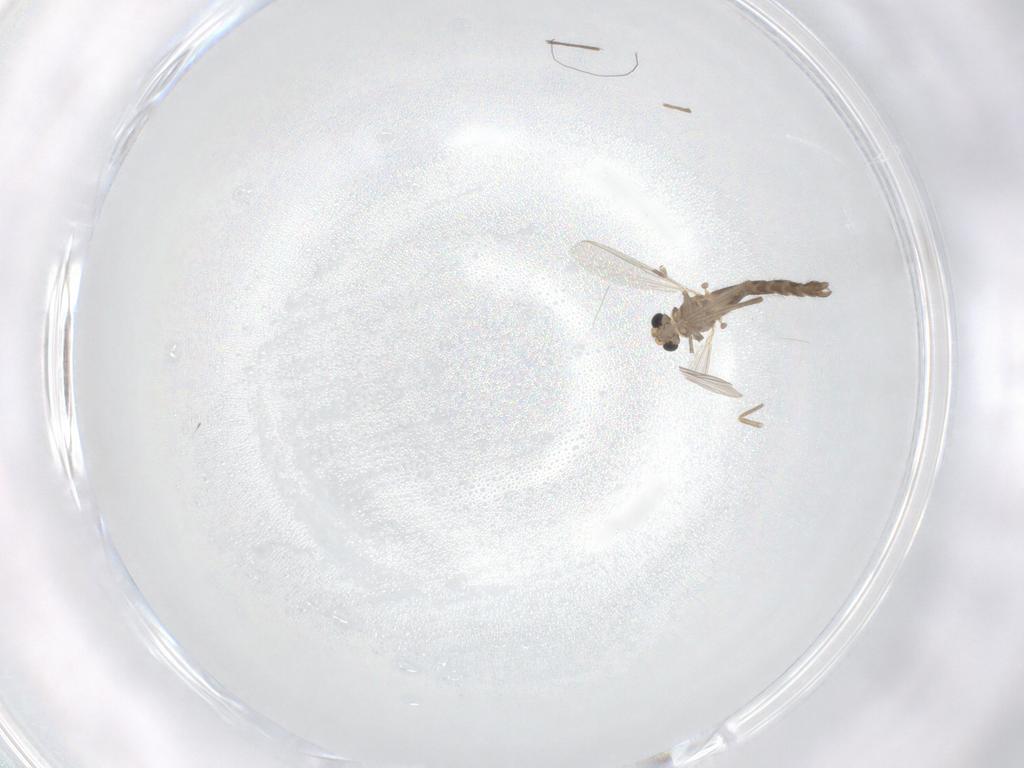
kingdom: Animalia
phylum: Arthropoda
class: Insecta
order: Diptera
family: Chironomidae
